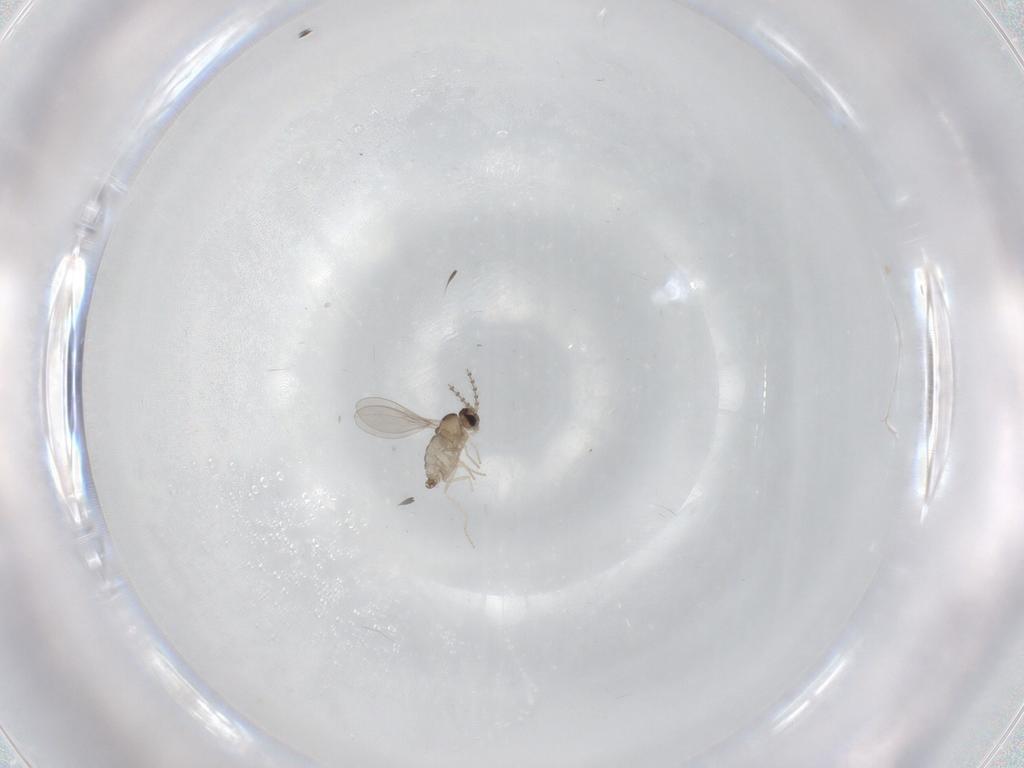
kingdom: Animalia
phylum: Arthropoda
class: Insecta
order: Diptera
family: Cecidomyiidae
